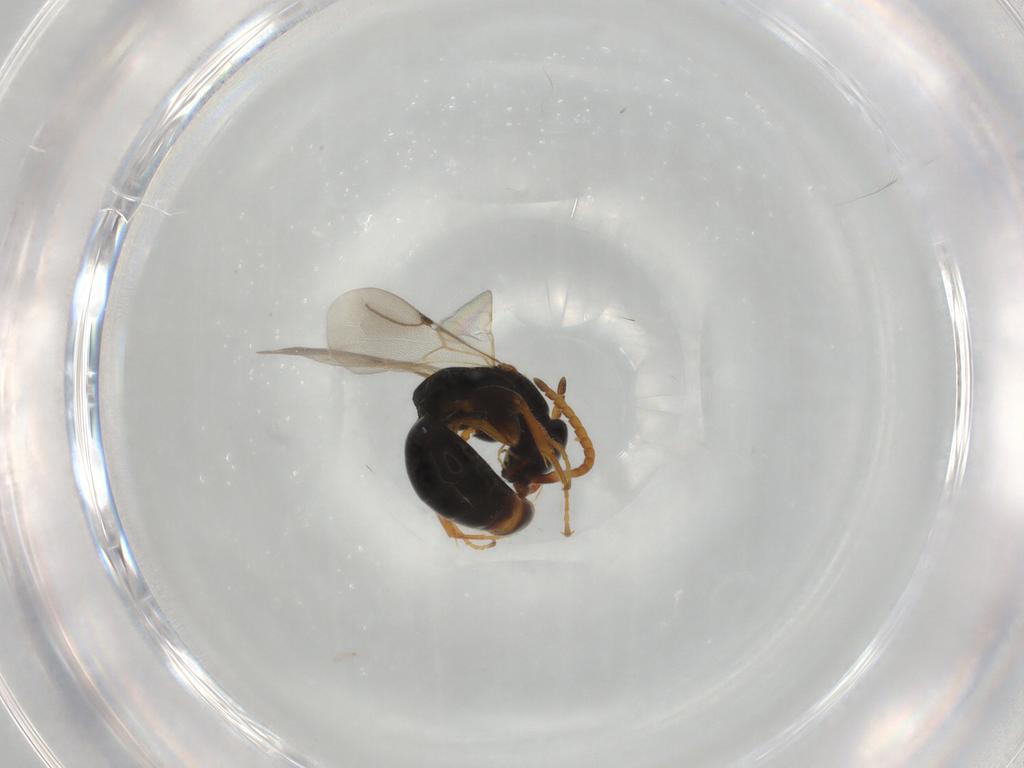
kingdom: Animalia
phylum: Arthropoda
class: Insecta
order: Hymenoptera
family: Bethylidae
